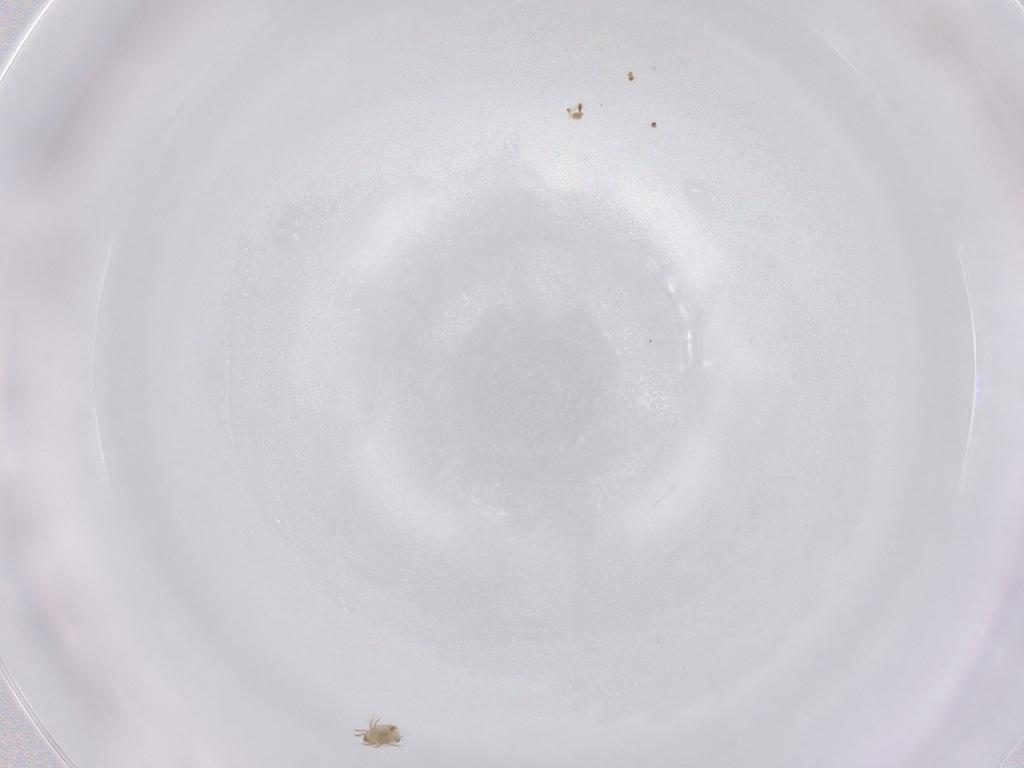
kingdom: Animalia
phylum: Arthropoda
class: Arachnida
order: Sarcoptiformes
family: Humerobatidae
